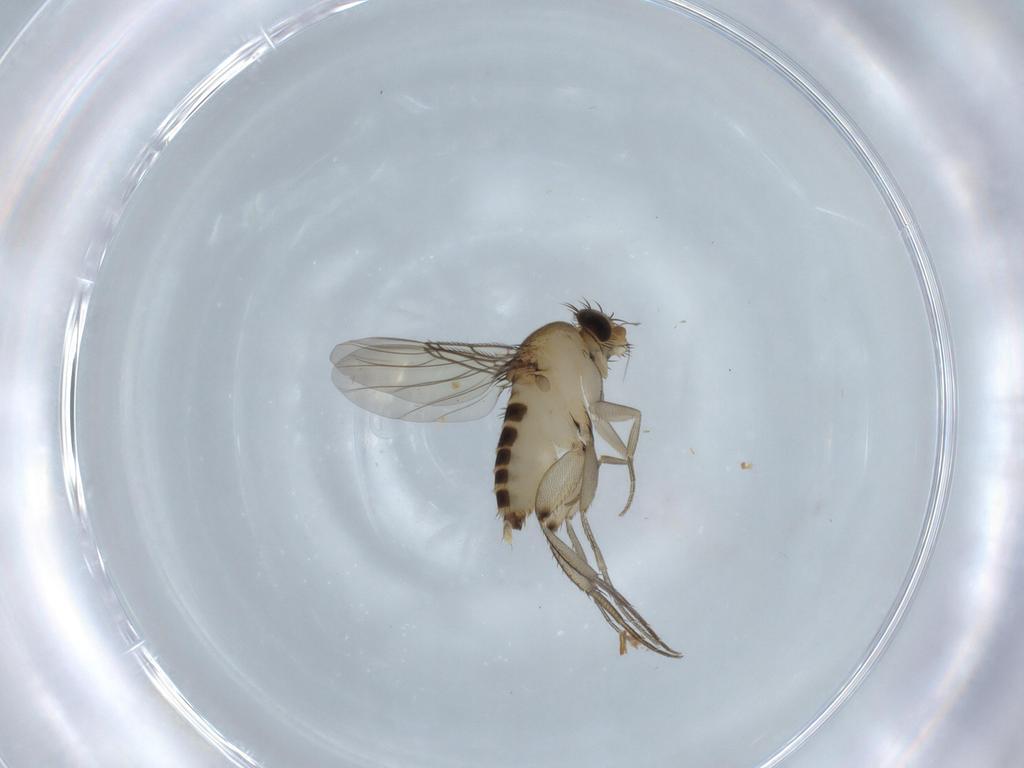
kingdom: Animalia
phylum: Arthropoda
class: Insecta
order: Diptera
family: Phoridae
